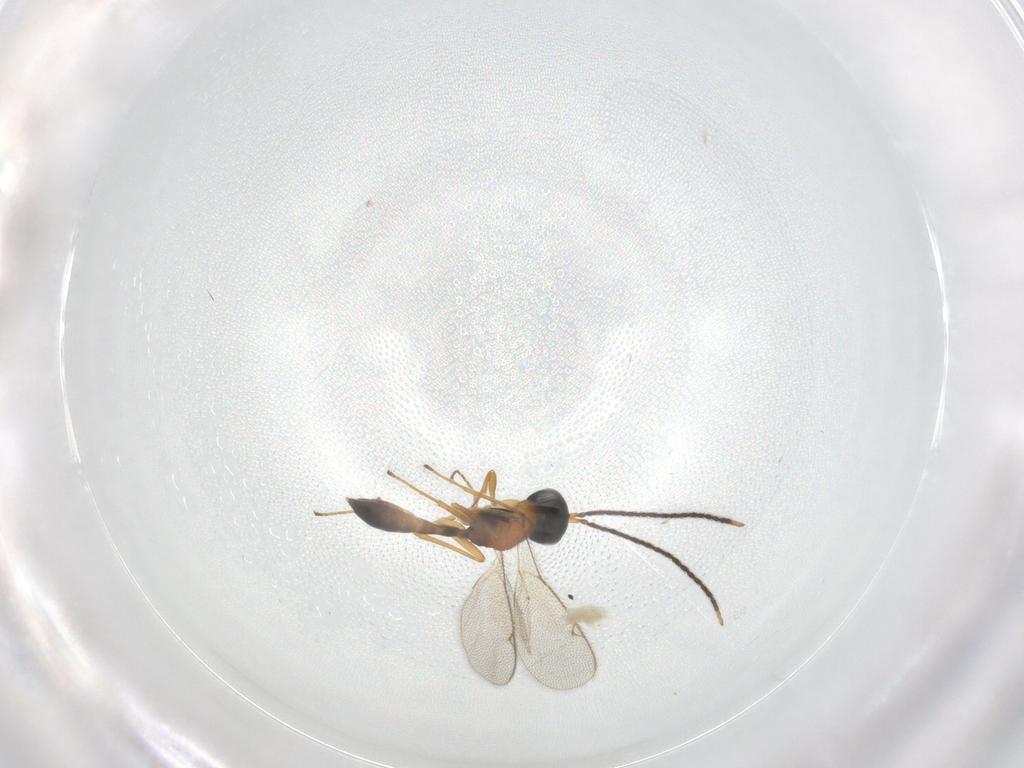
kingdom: Animalia
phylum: Arthropoda
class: Insecta
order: Hymenoptera
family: Pteromalidae
